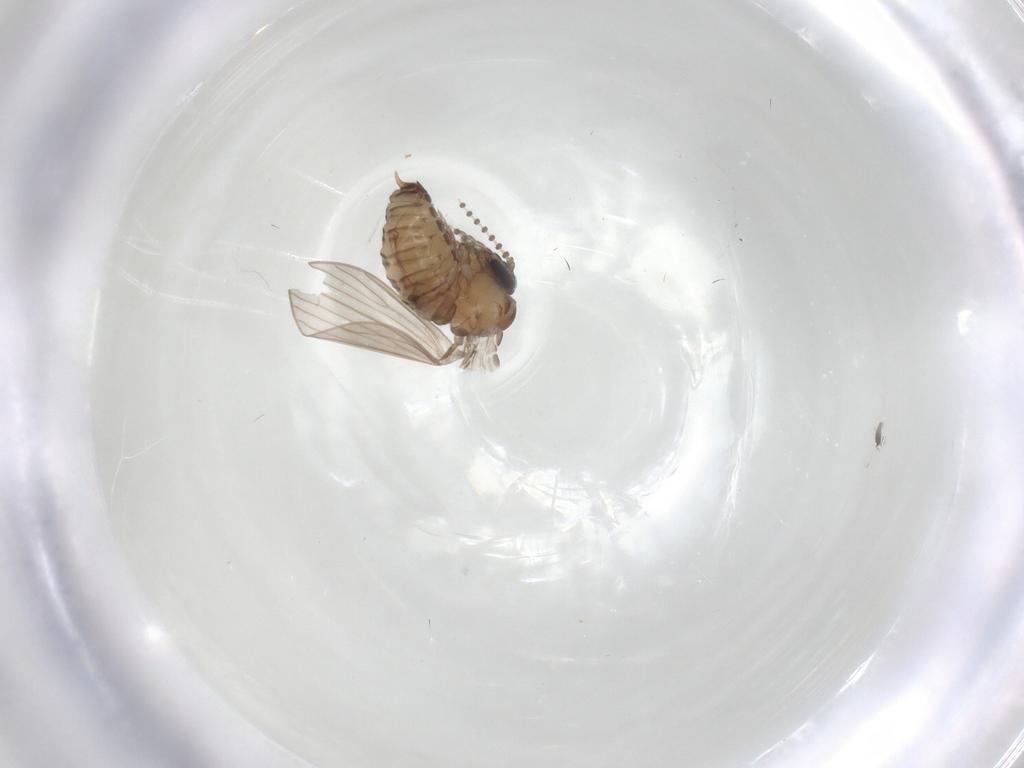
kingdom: Animalia
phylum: Arthropoda
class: Insecta
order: Diptera
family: Psychodidae
